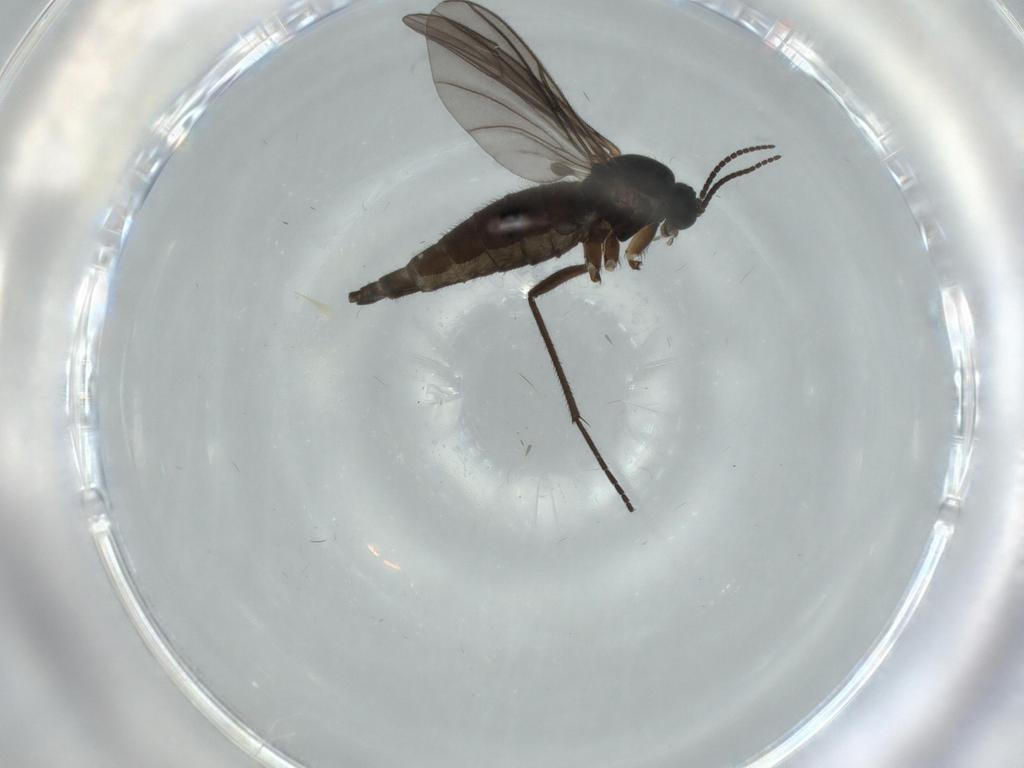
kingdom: Animalia
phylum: Arthropoda
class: Insecta
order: Diptera
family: Sciaridae
